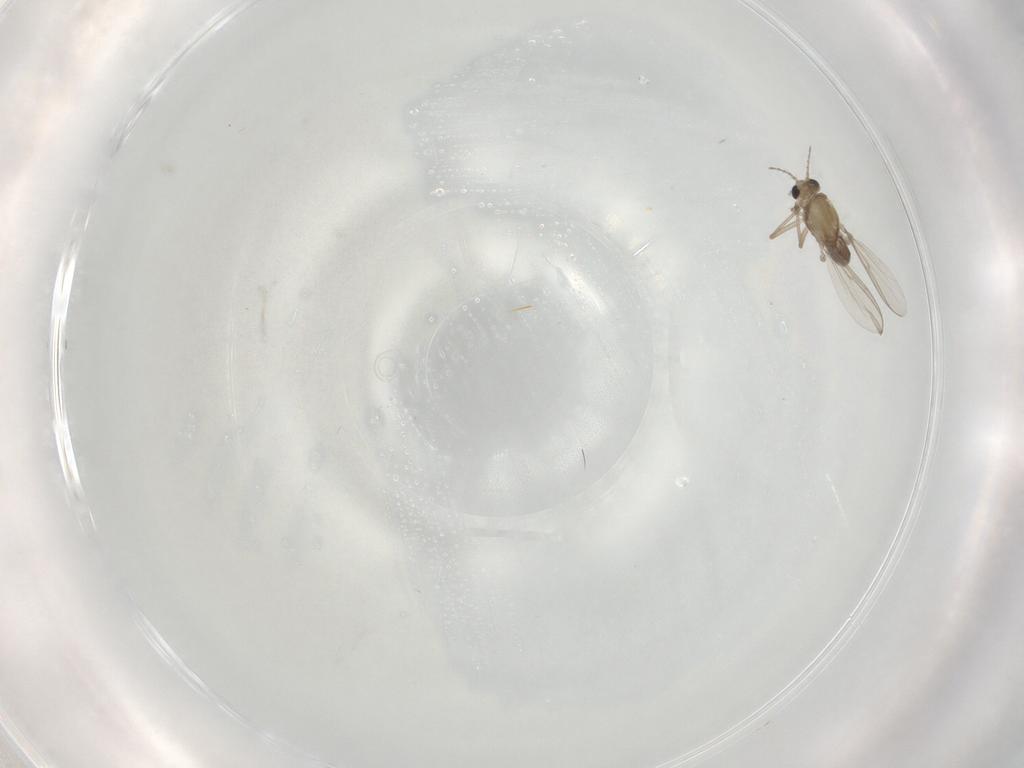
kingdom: Animalia
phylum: Arthropoda
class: Insecta
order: Diptera
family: Chironomidae
